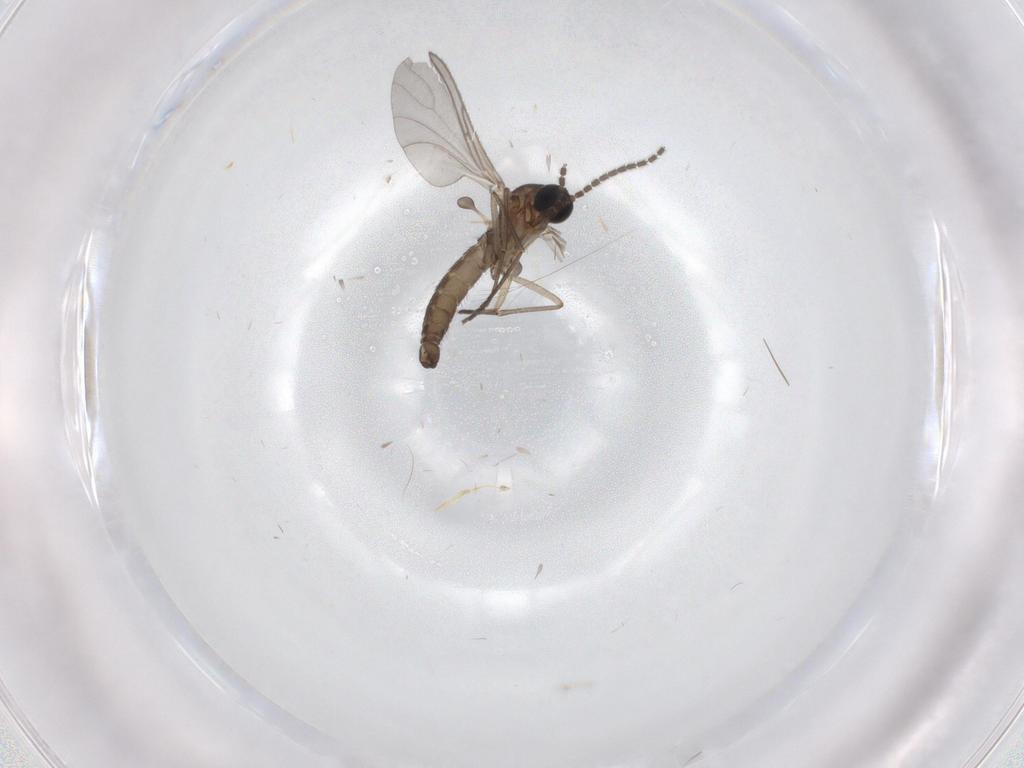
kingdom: Animalia
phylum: Arthropoda
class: Insecta
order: Diptera
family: Sciaridae
